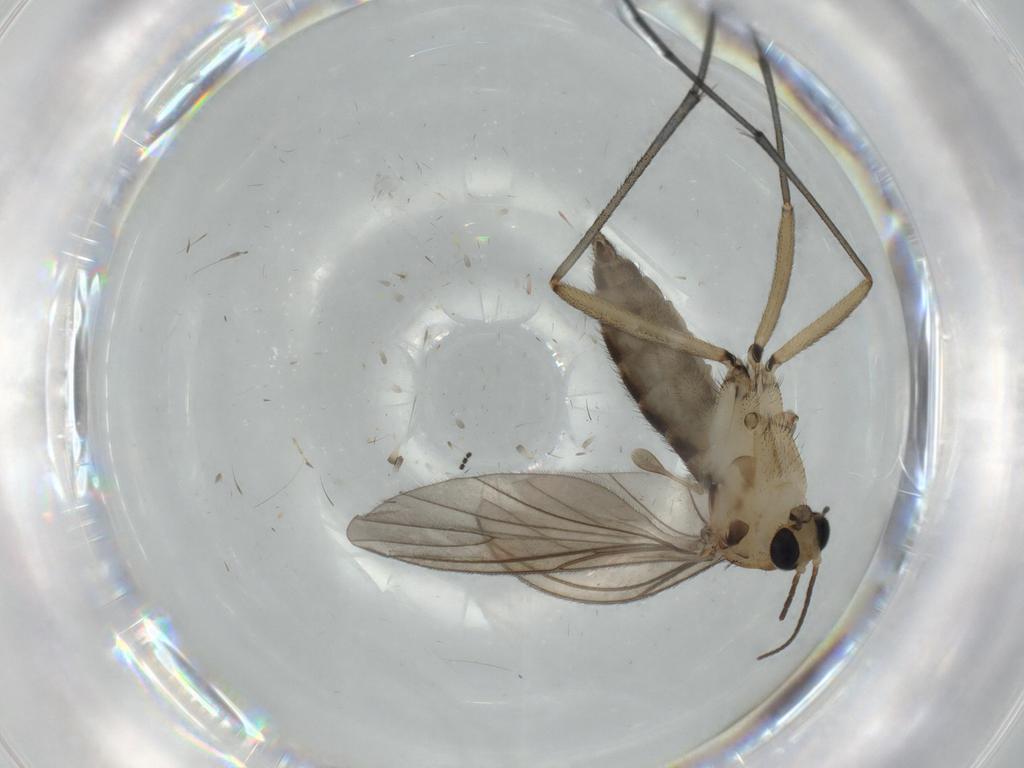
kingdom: Animalia
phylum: Arthropoda
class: Insecta
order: Diptera
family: Sciaridae
